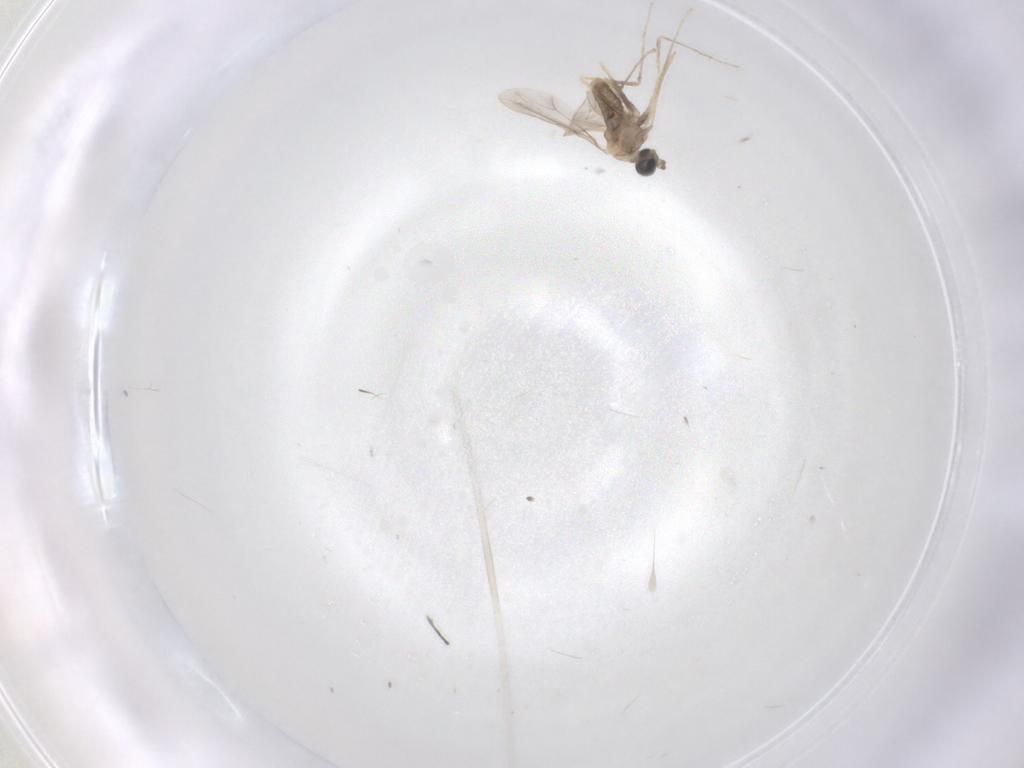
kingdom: Animalia
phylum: Arthropoda
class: Insecta
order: Diptera
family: Cecidomyiidae
